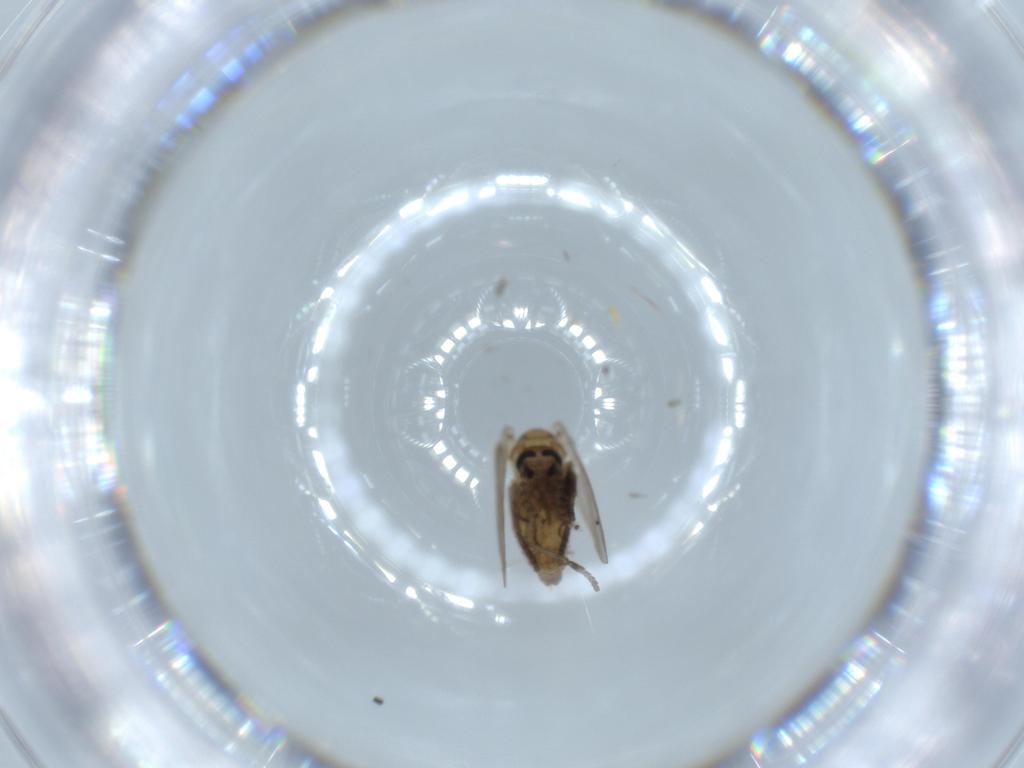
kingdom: Animalia
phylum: Arthropoda
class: Insecta
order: Diptera
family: Psychodidae
